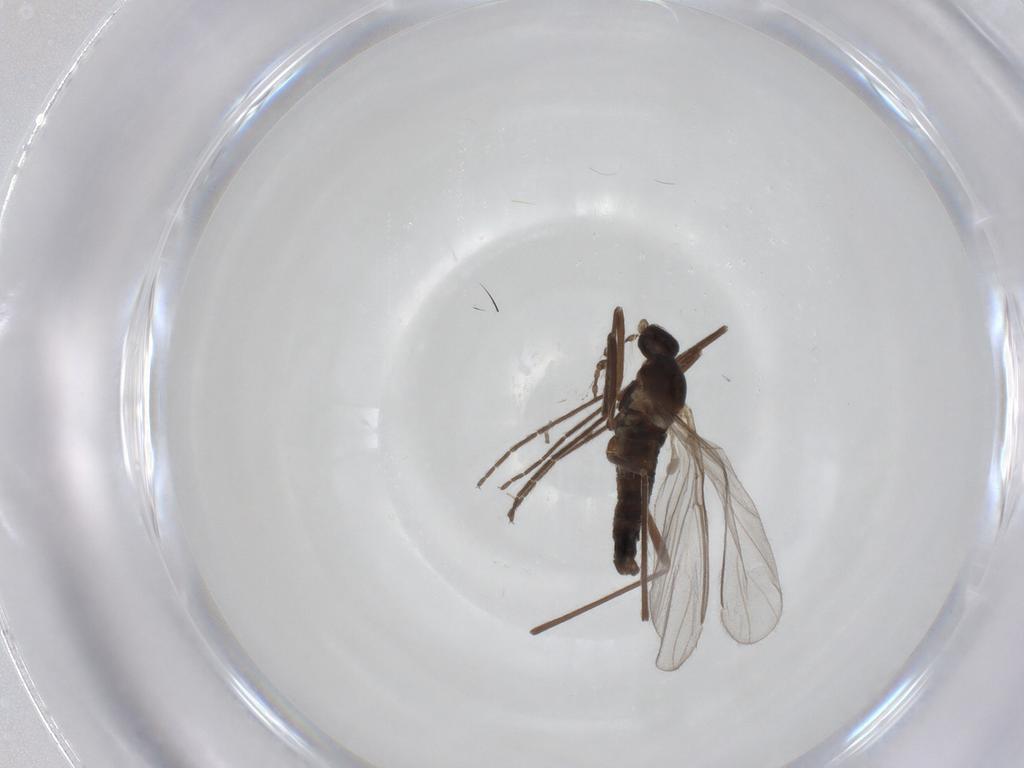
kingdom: Animalia
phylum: Arthropoda
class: Insecta
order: Diptera
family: Cecidomyiidae
